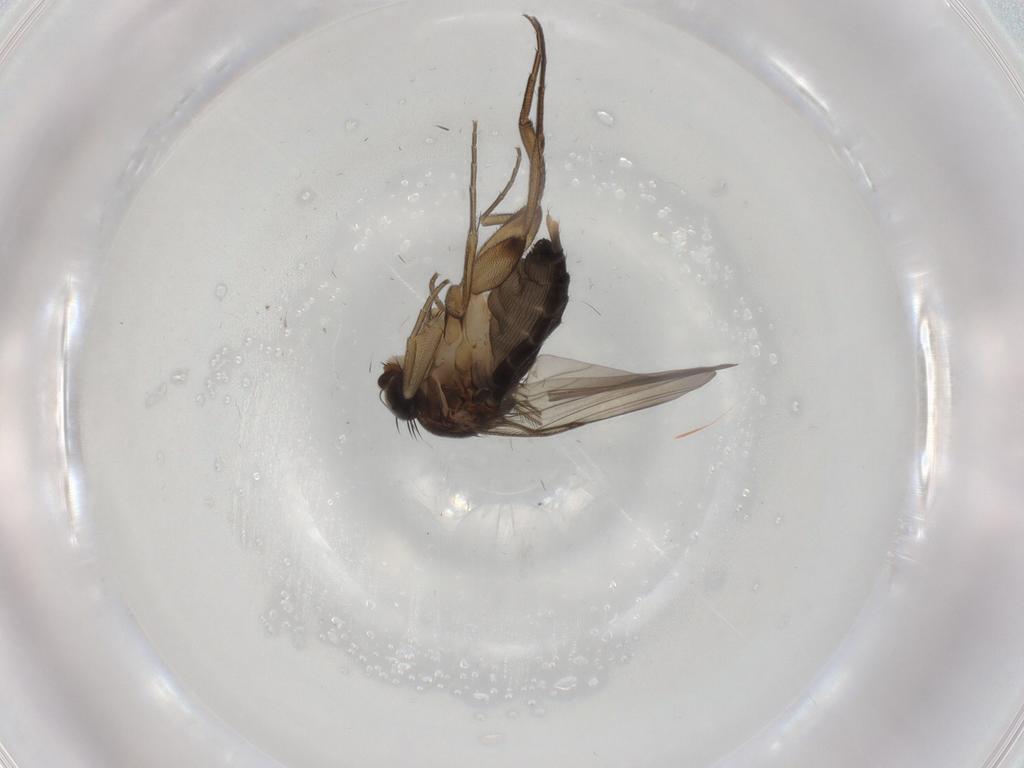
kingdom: Animalia
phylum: Arthropoda
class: Insecta
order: Diptera
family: Phoridae
